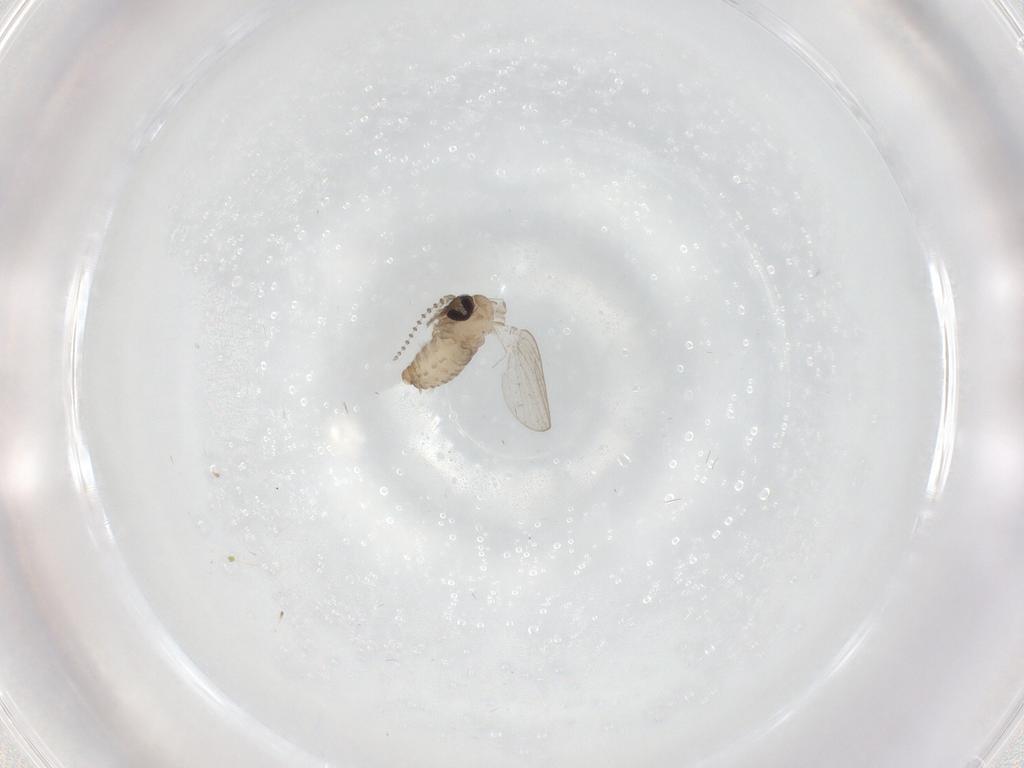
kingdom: Animalia
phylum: Arthropoda
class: Insecta
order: Diptera
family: Psychodidae
